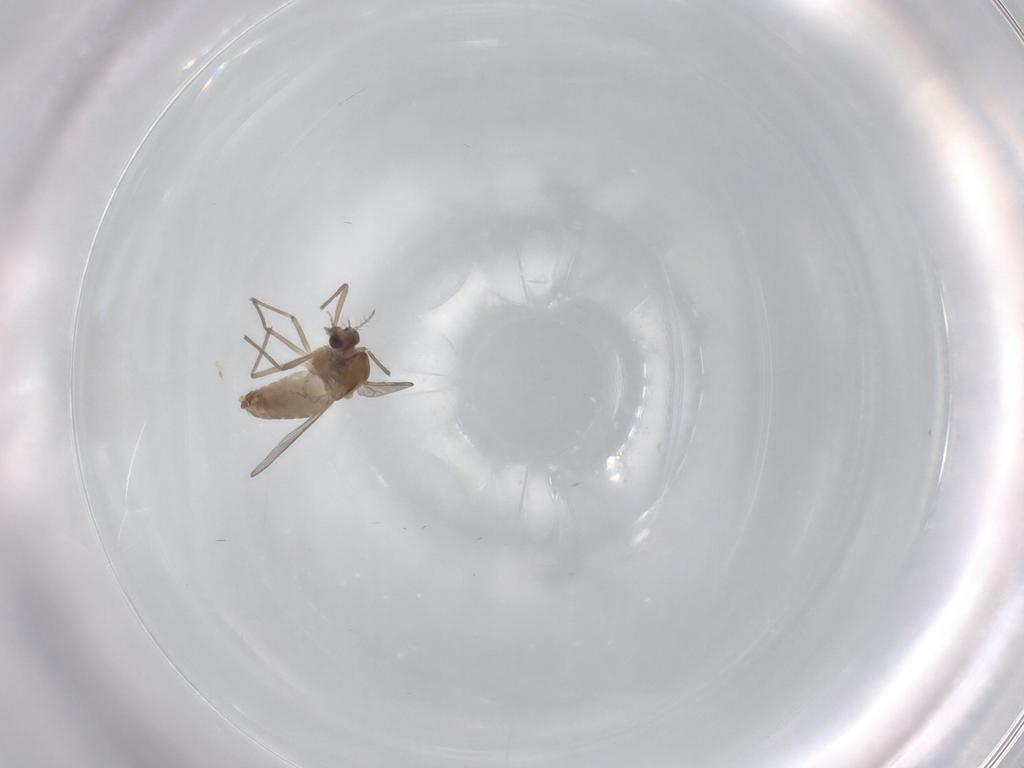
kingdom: Animalia
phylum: Arthropoda
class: Insecta
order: Diptera
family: Chironomidae
